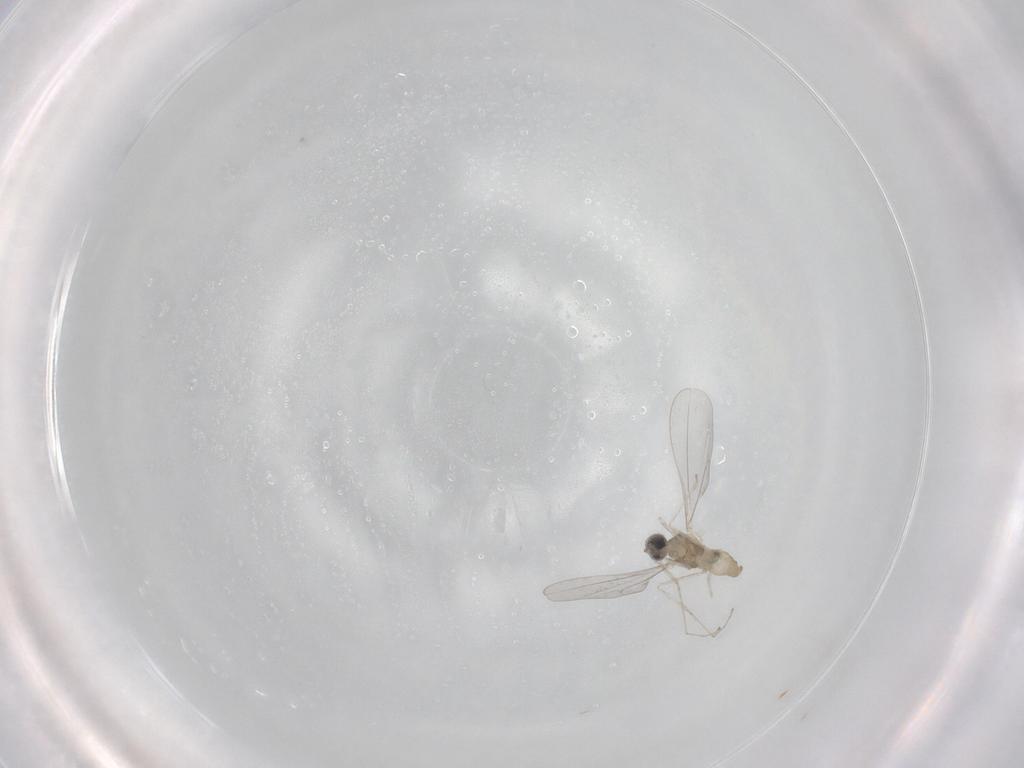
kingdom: Animalia
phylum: Arthropoda
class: Insecta
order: Diptera
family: Cecidomyiidae
